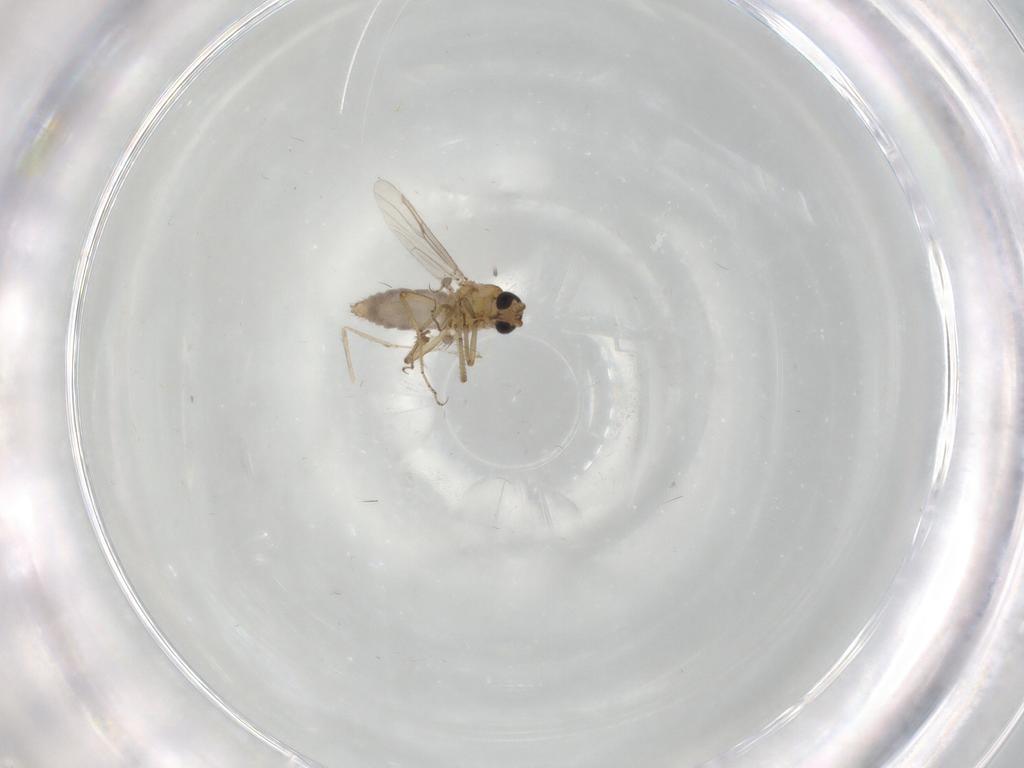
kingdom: Animalia
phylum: Arthropoda
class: Insecta
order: Diptera
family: Cecidomyiidae
